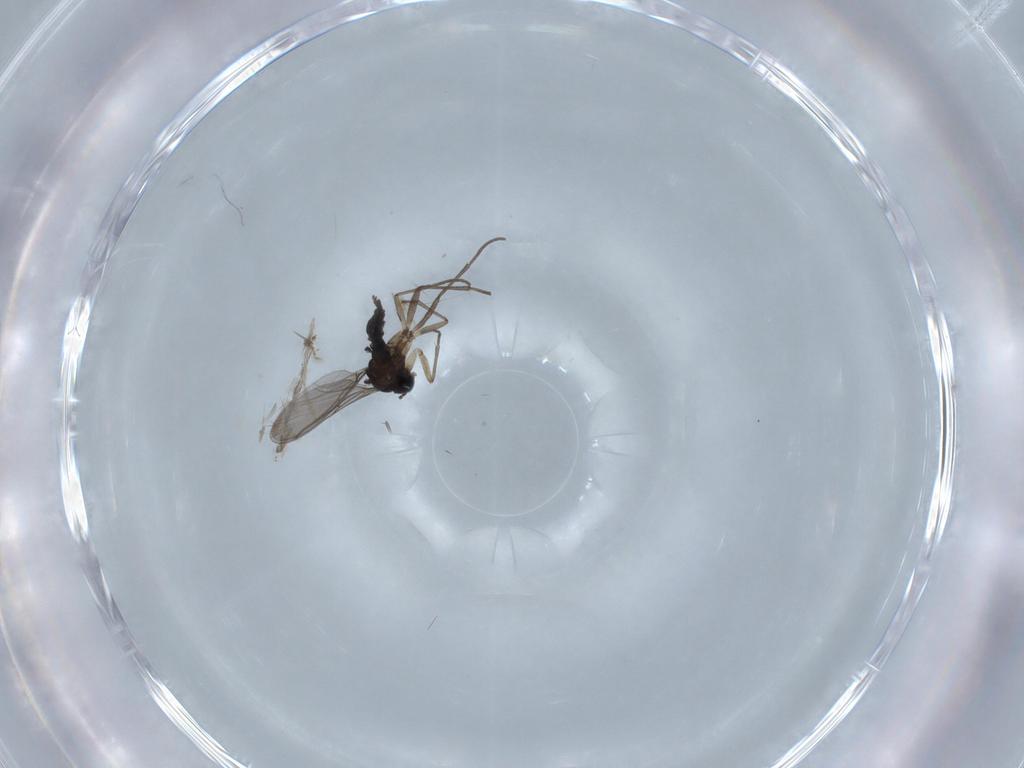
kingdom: Animalia
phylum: Arthropoda
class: Insecta
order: Diptera
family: Sciaridae
